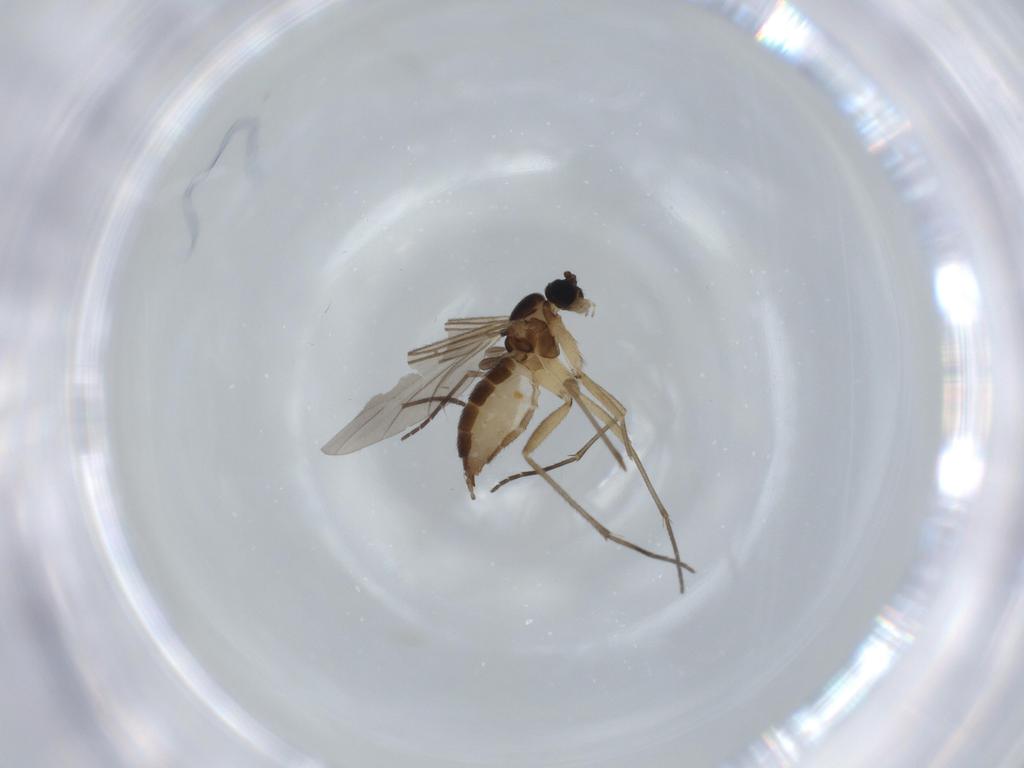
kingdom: Animalia
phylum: Arthropoda
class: Insecta
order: Diptera
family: Sciaridae
